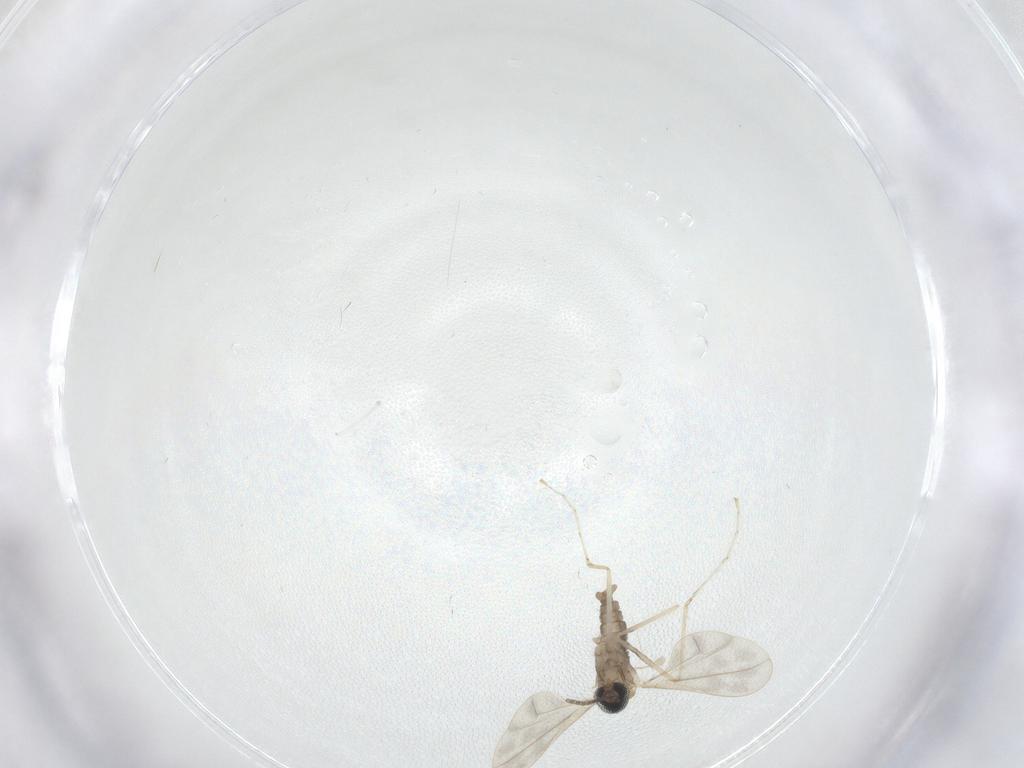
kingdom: Animalia
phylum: Arthropoda
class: Insecta
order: Diptera
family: Cecidomyiidae
